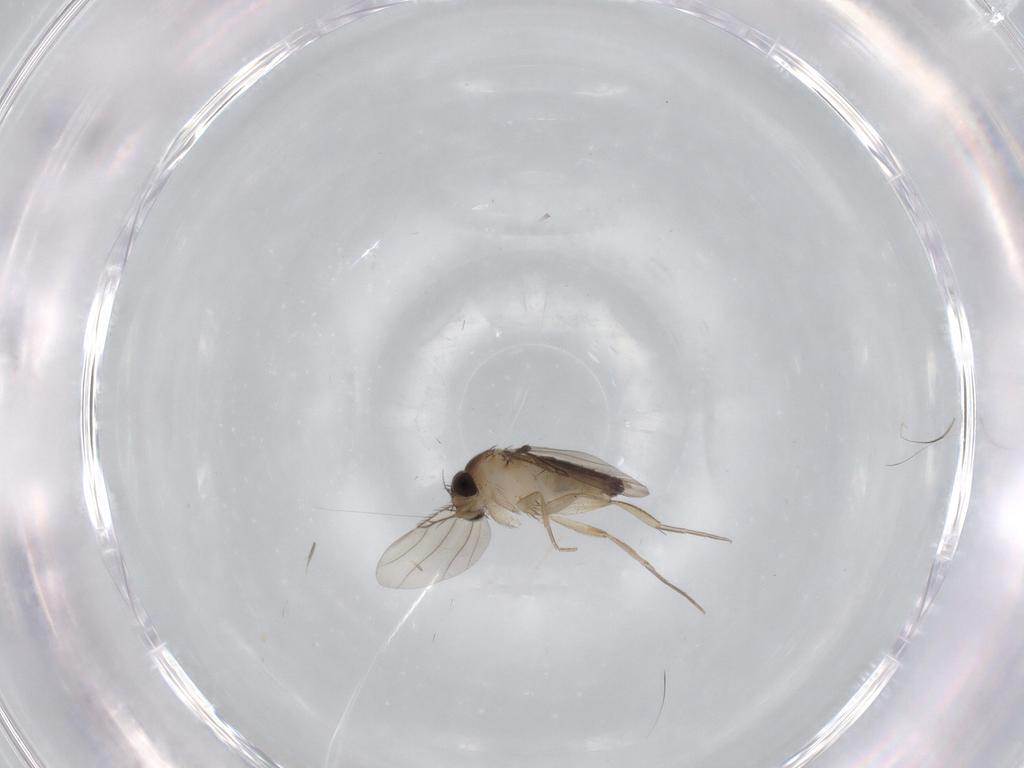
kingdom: Animalia
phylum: Arthropoda
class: Insecta
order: Diptera
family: Phoridae
